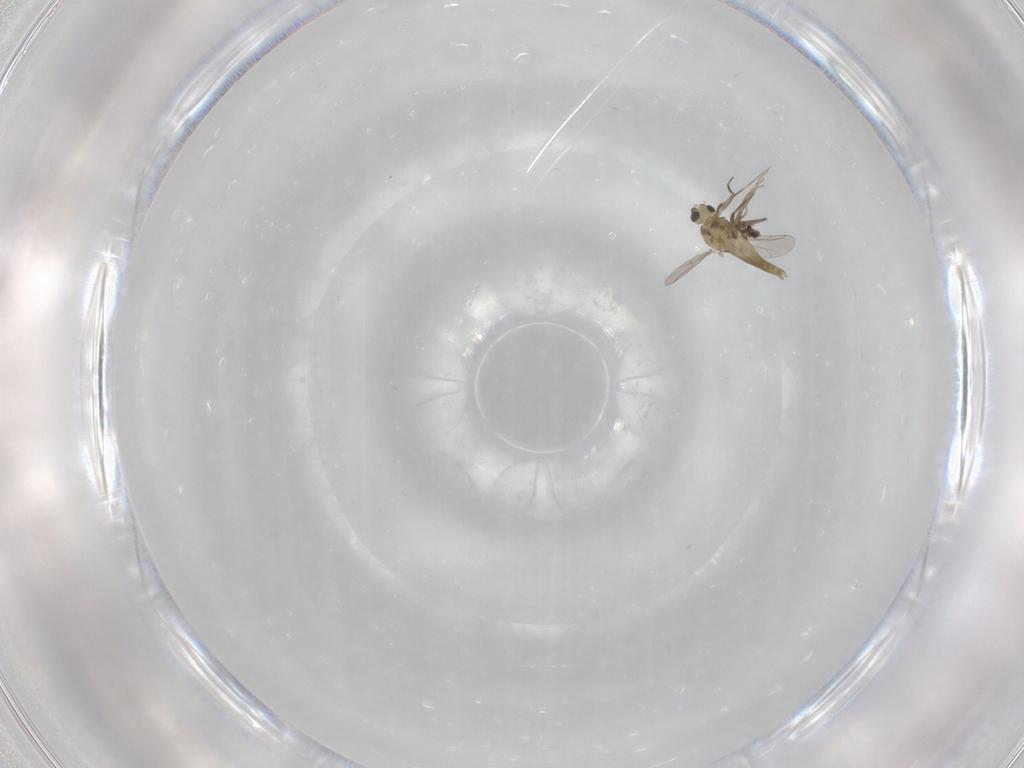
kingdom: Animalia
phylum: Arthropoda
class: Insecta
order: Diptera
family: Chironomidae
